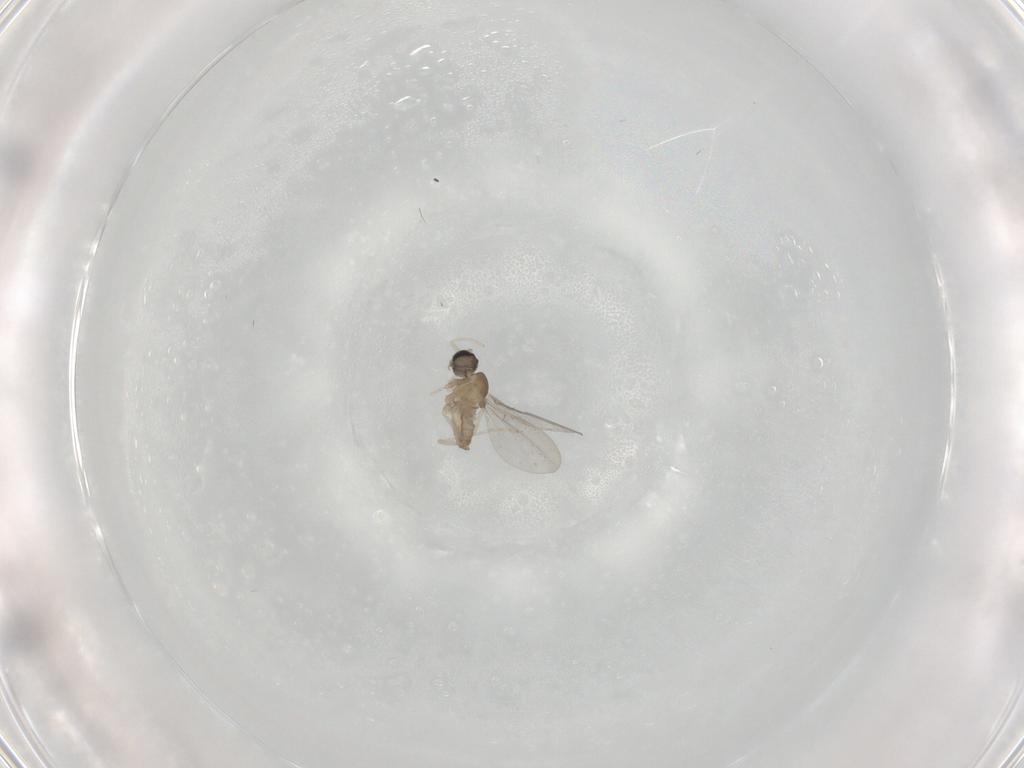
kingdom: Animalia
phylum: Arthropoda
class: Insecta
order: Diptera
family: Cecidomyiidae
